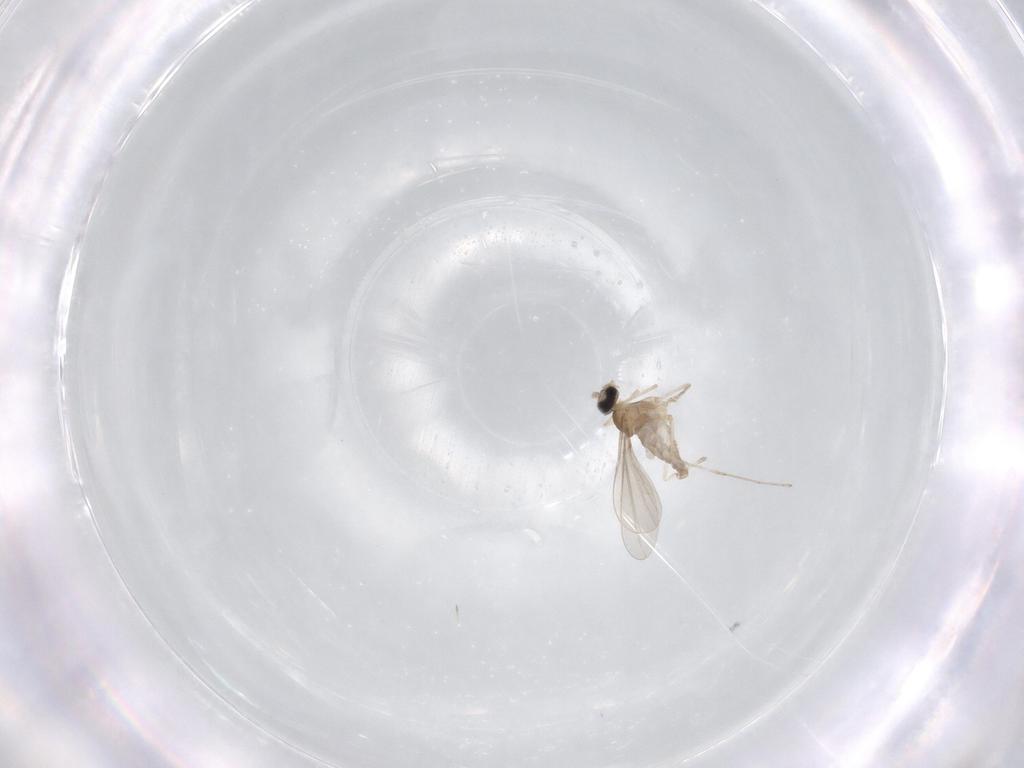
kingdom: Animalia
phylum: Arthropoda
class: Insecta
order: Diptera
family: Cecidomyiidae
